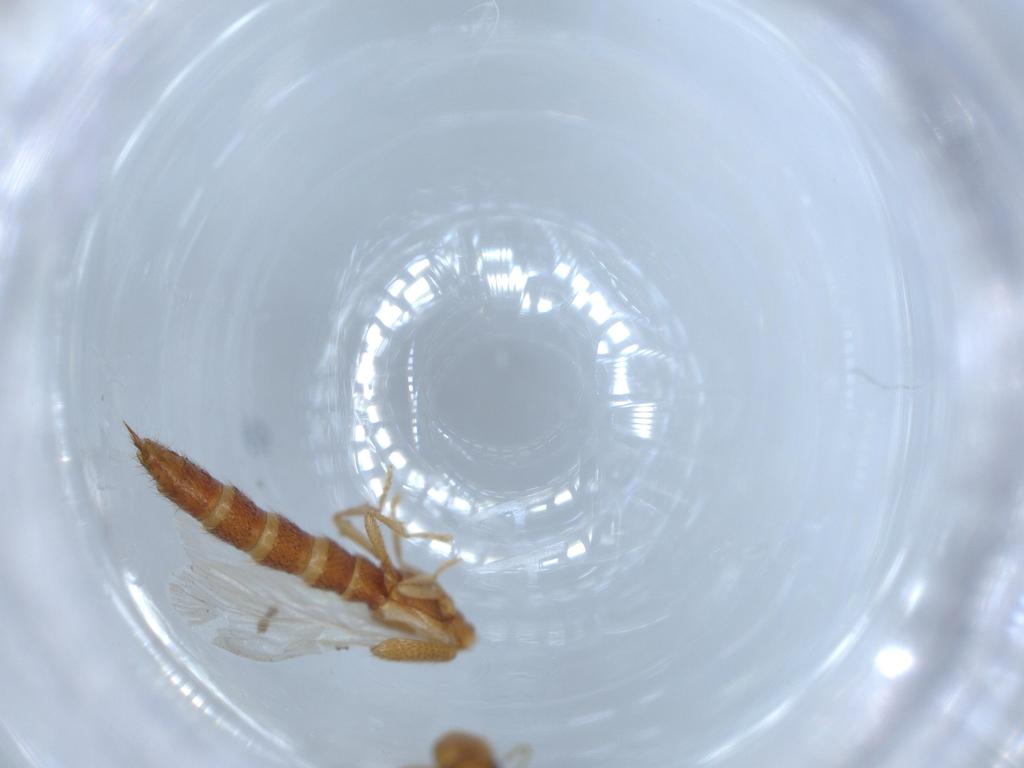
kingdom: Animalia
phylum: Arthropoda
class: Insecta
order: Coleoptera
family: Staphylinidae
